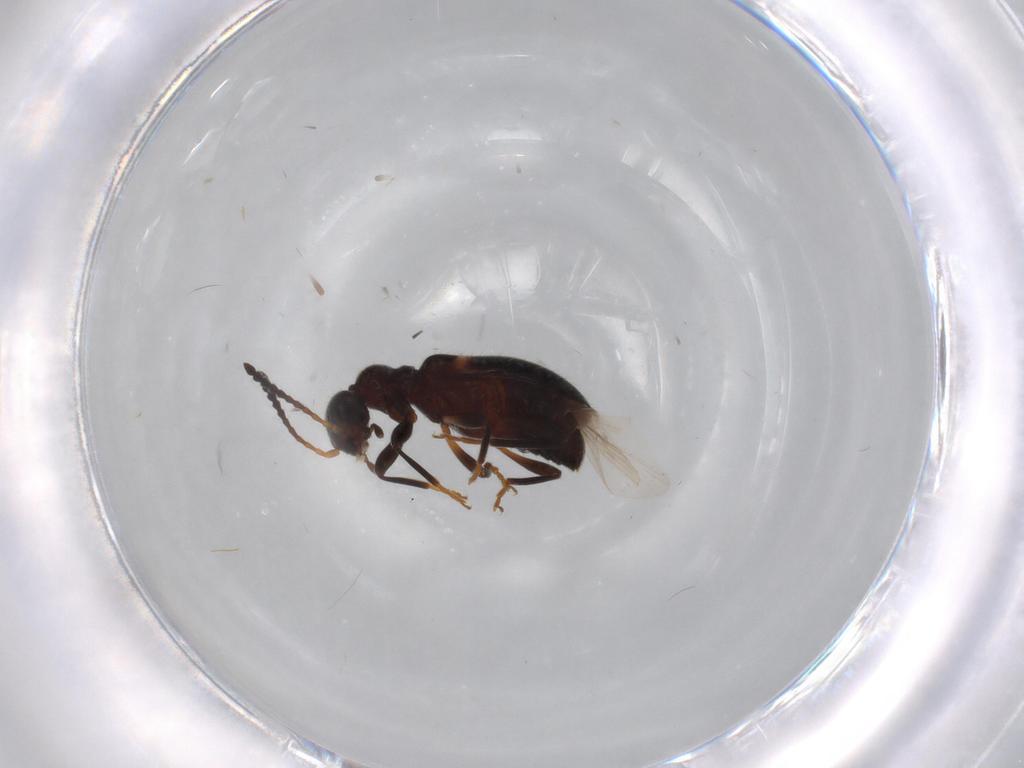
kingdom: Animalia
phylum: Arthropoda
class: Insecta
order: Coleoptera
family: Anthicidae
